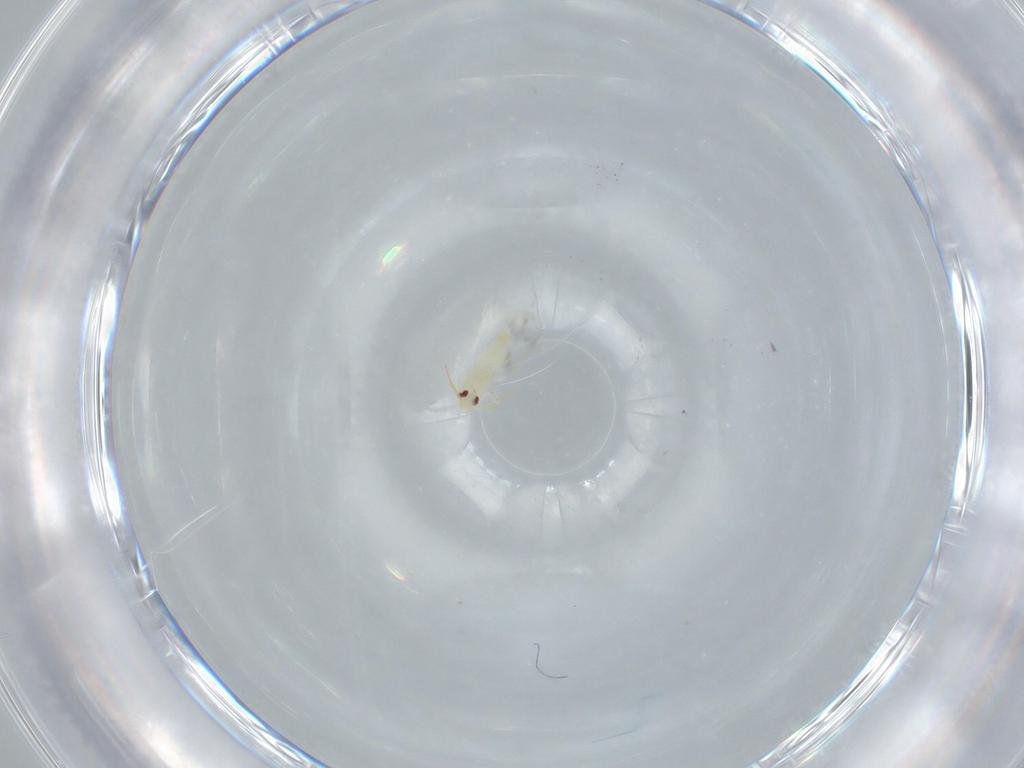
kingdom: Animalia
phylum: Arthropoda
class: Insecta
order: Hemiptera
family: Aleyrodidae
